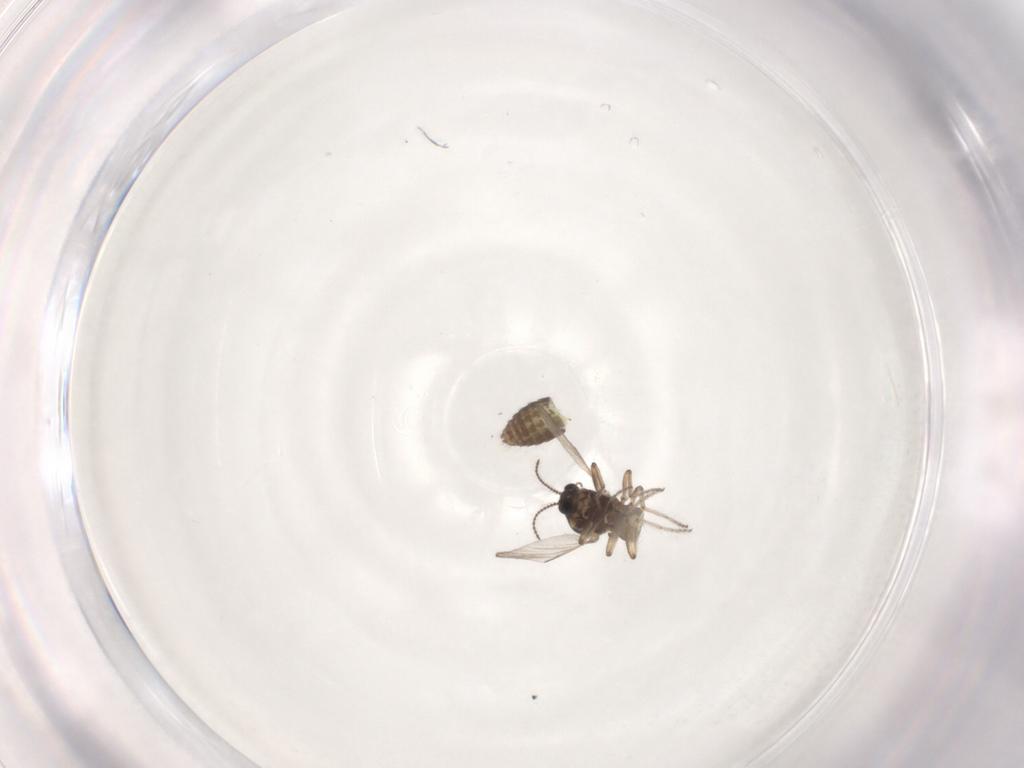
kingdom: Animalia
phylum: Arthropoda
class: Insecta
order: Diptera
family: Ceratopogonidae
